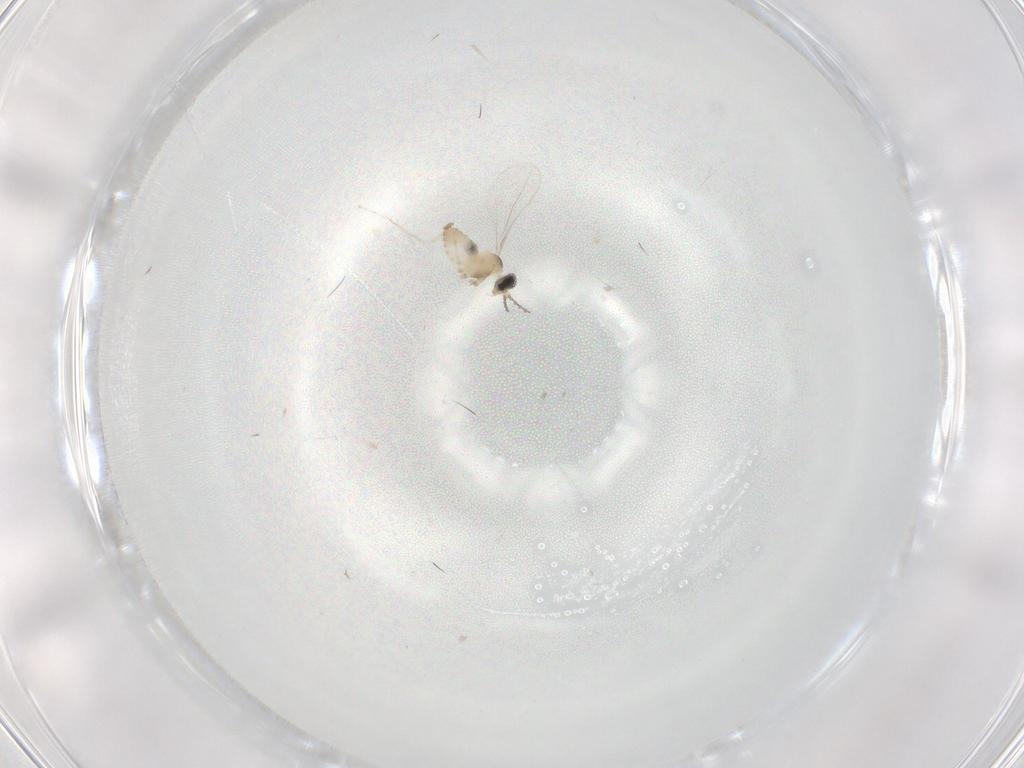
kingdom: Animalia
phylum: Arthropoda
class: Insecta
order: Diptera
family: Cecidomyiidae
